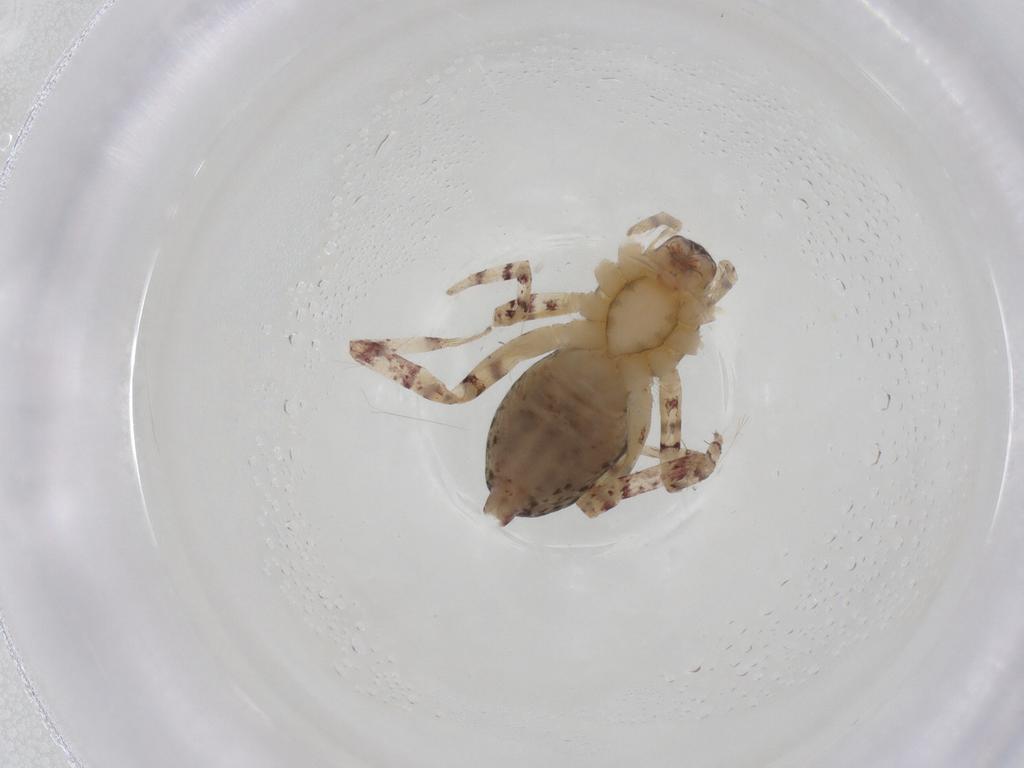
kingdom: Animalia
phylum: Arthropoda
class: Arachnida
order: Araneae
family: Anyphaenidae
